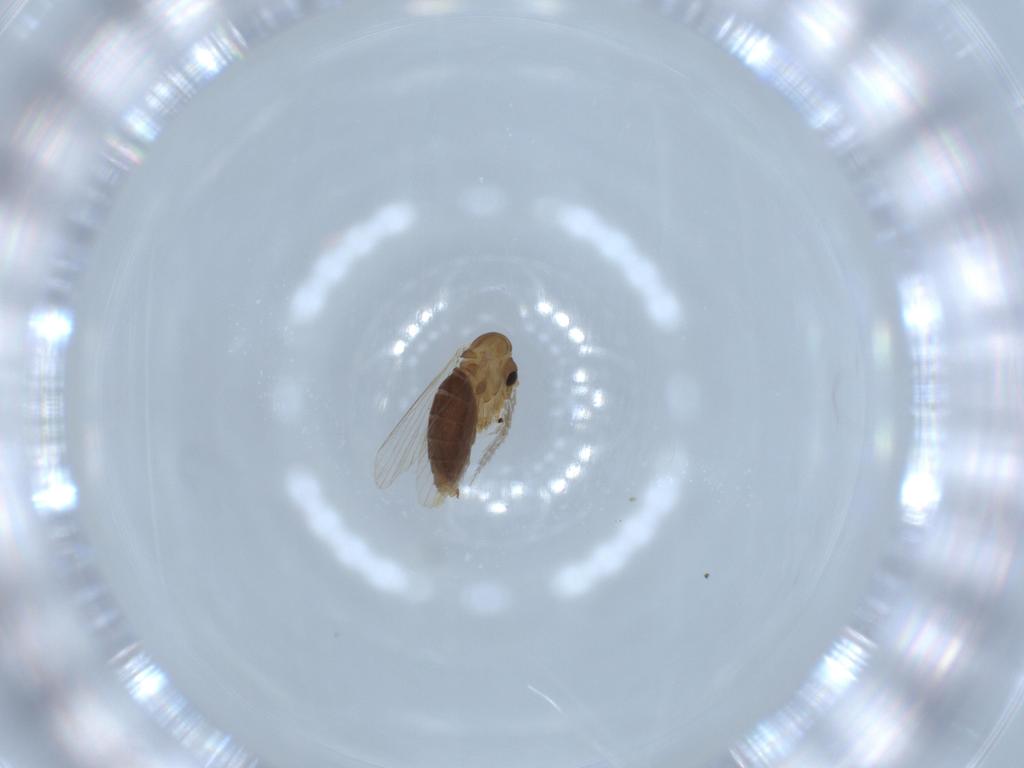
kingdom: Animalia
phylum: Arthropoda
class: Insecta
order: Diptera
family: Psychodidae
